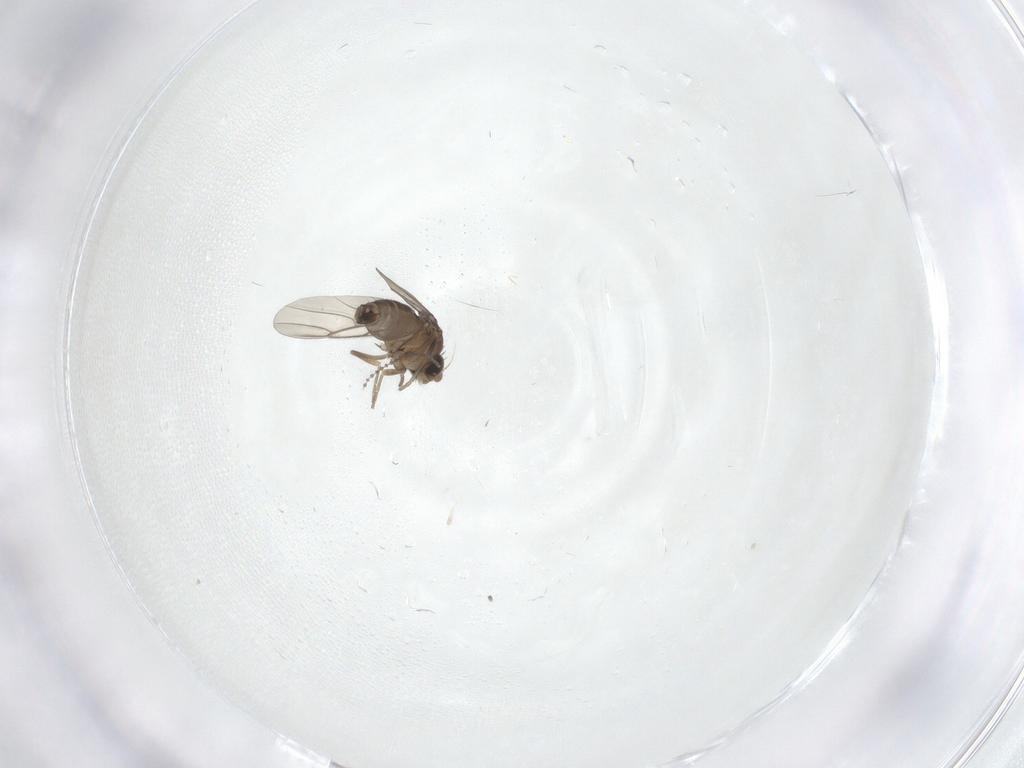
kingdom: Animalia
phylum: Arthropoda
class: Insecta
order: Diptera
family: Phoridae
